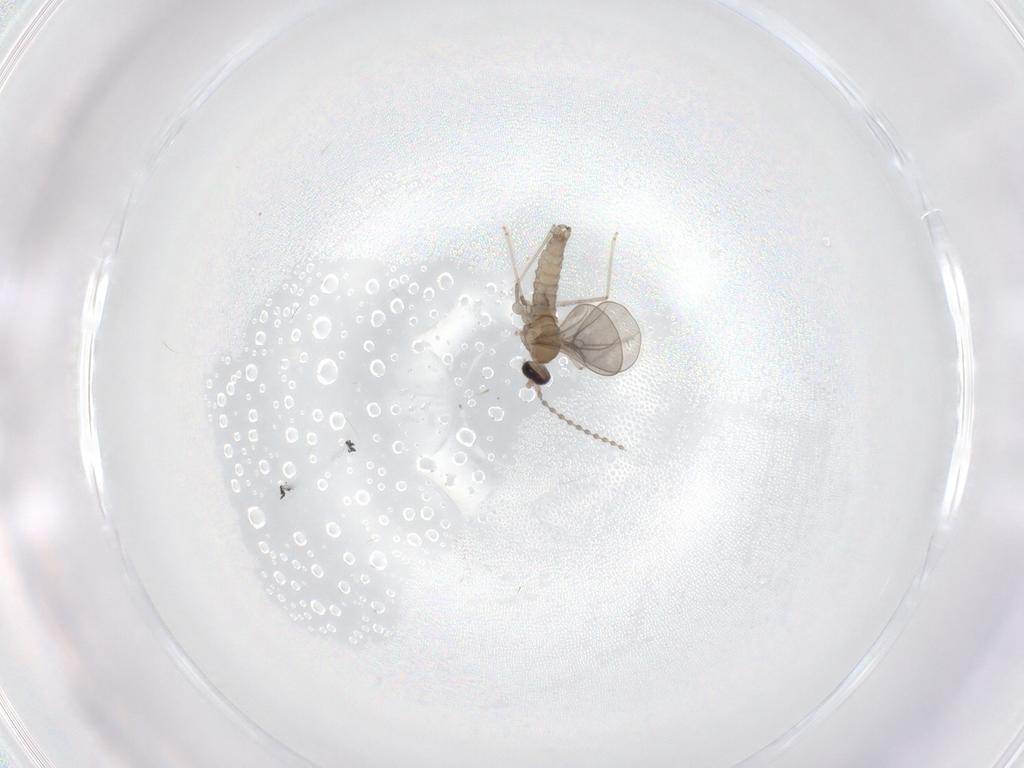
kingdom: Animalia
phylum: Arthropoda
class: Insecta
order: Diptera
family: Cecidomyiidae
